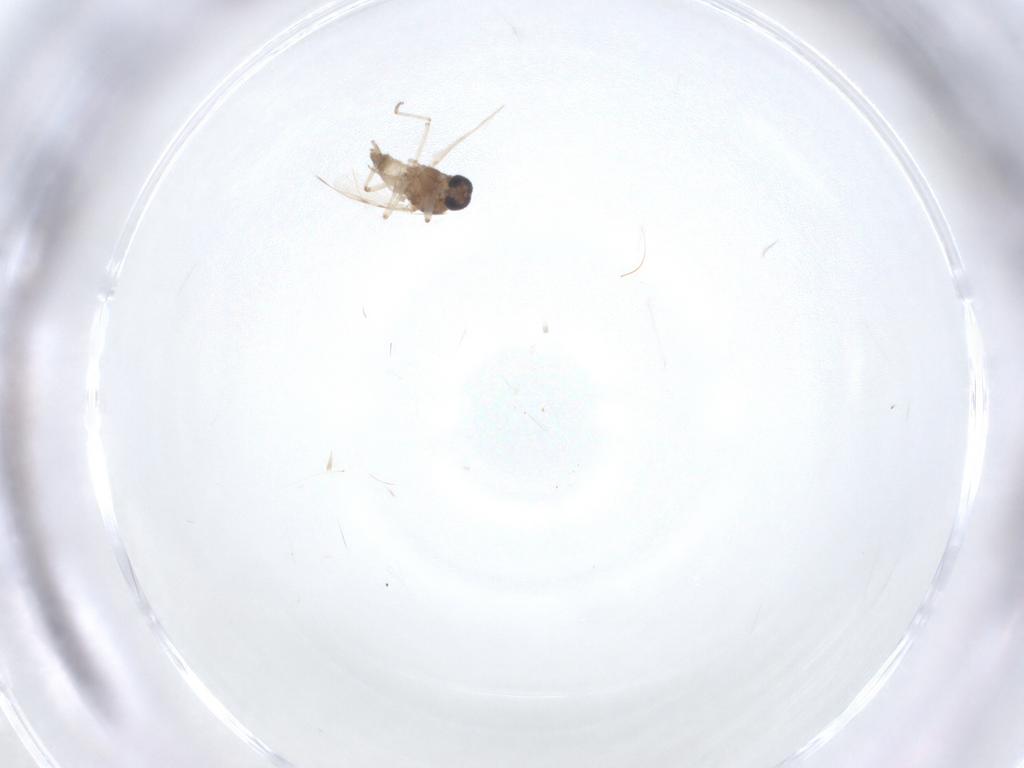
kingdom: Animalia
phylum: Arthropoda
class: Insecta
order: Diptera
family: Ceratopogonidae
